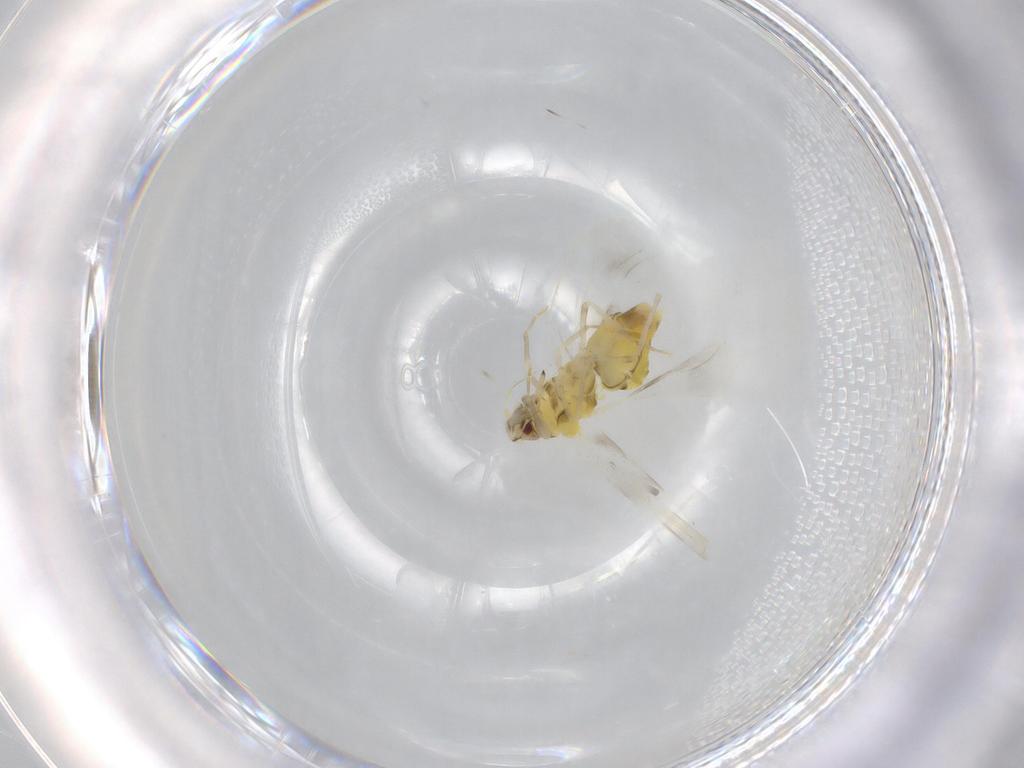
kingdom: Animalia
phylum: Arthropoda
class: Insecta
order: Hemiptera
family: Aleyrodidae
